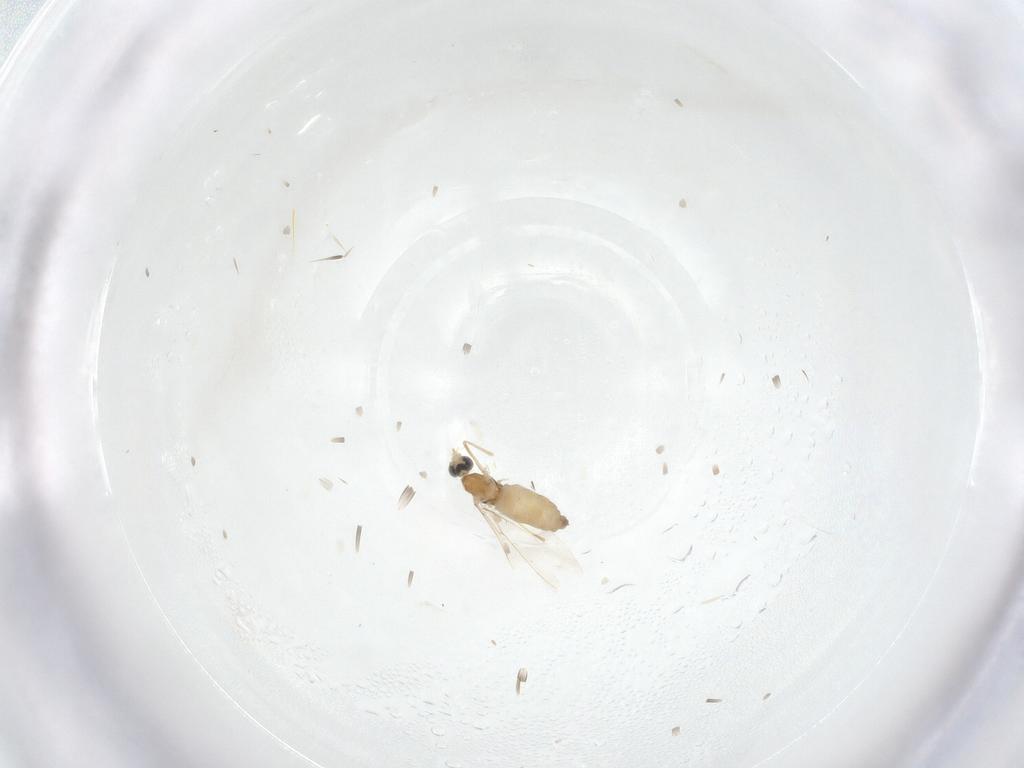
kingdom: Animalia
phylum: Arthropoda
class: Insecta
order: Diptera
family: Cecidomyiidae
